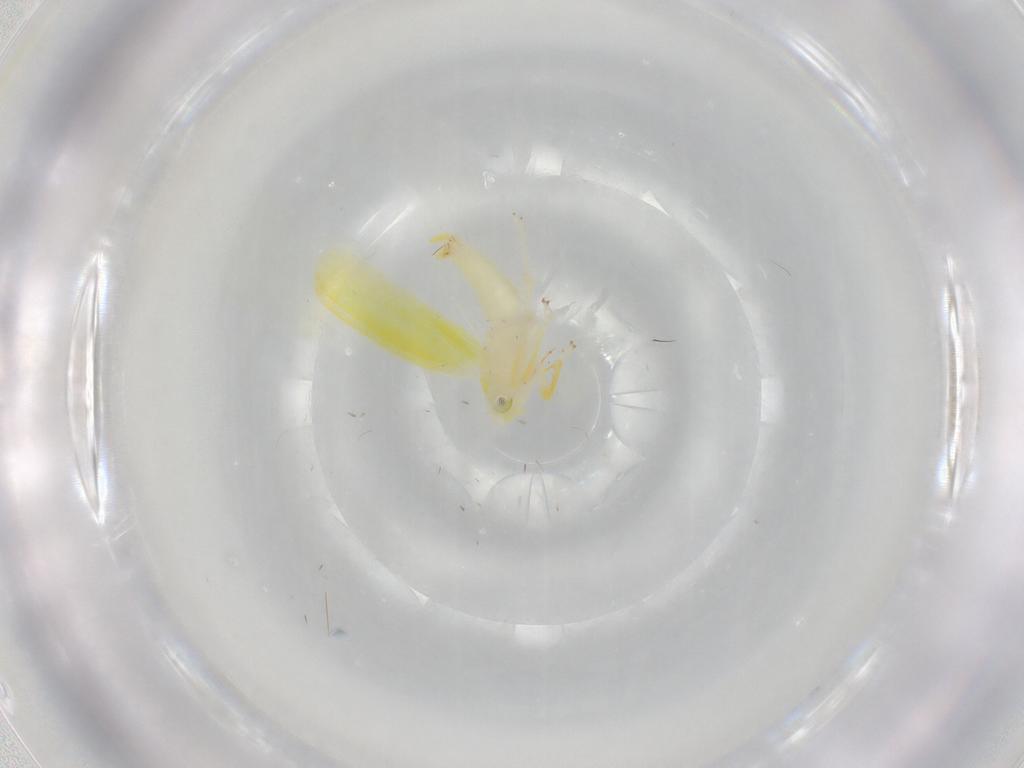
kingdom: Animalia
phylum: Arthropoda
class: Insecta
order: Hemiptera
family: Cicadellidae
